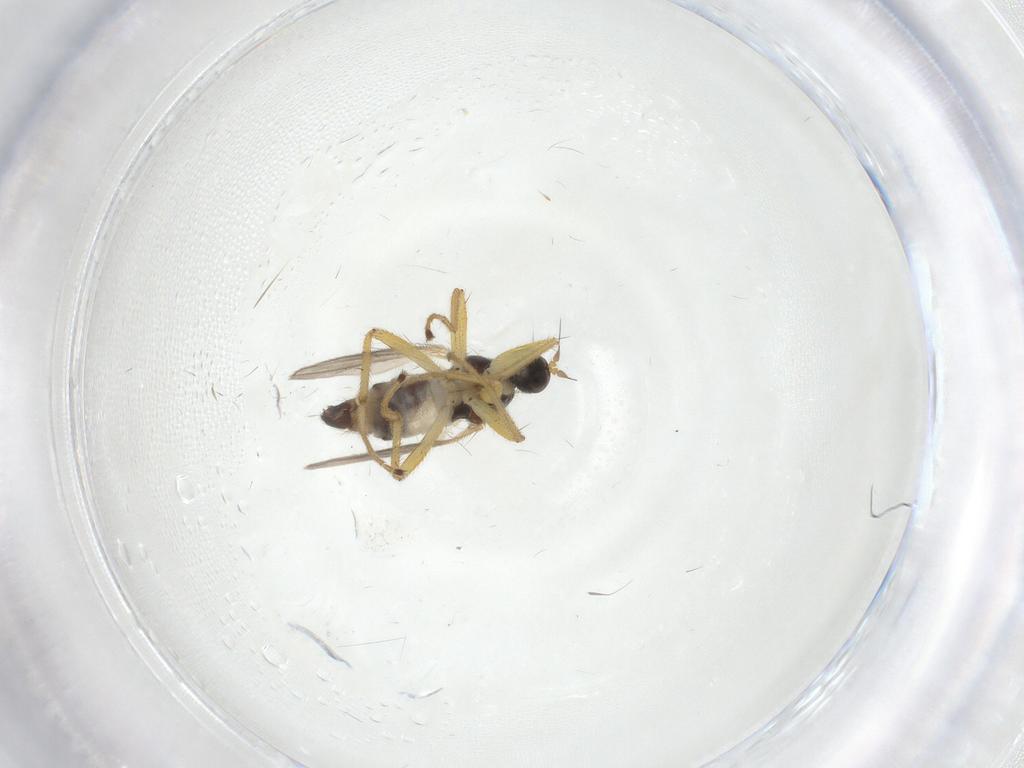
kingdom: Animalia
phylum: Arthropoda
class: Insecta
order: Diptera
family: Hybotidae
